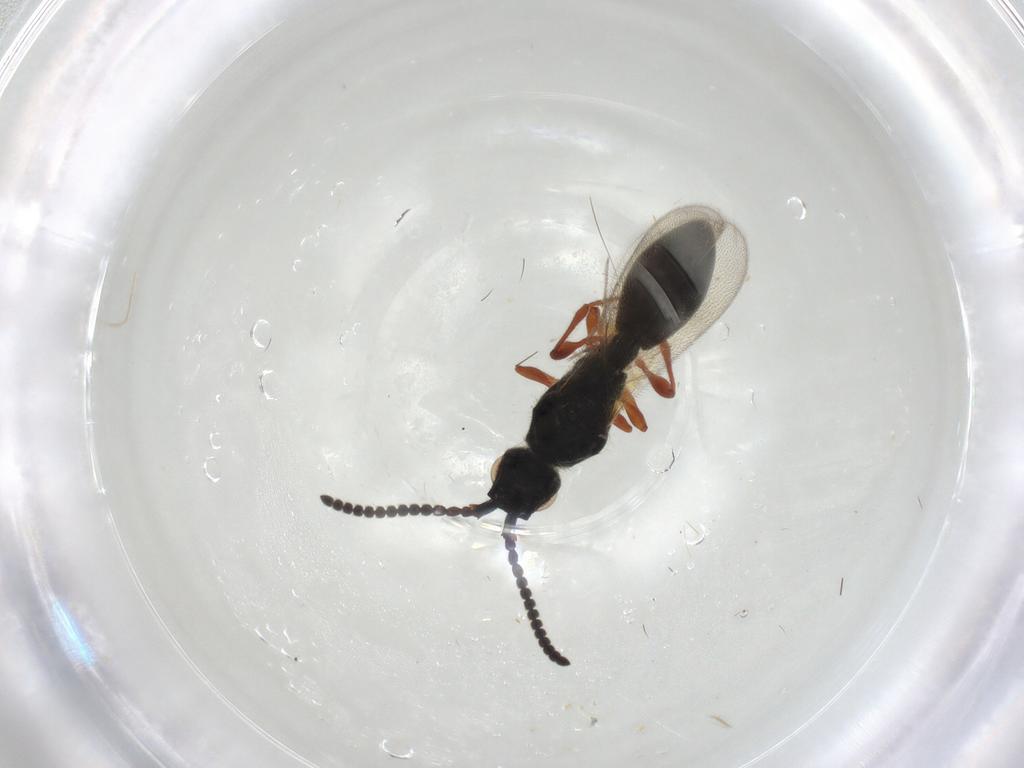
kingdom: Animalia
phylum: Arthropoda
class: Insecta
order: Hymenoptera
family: Diapriidae
